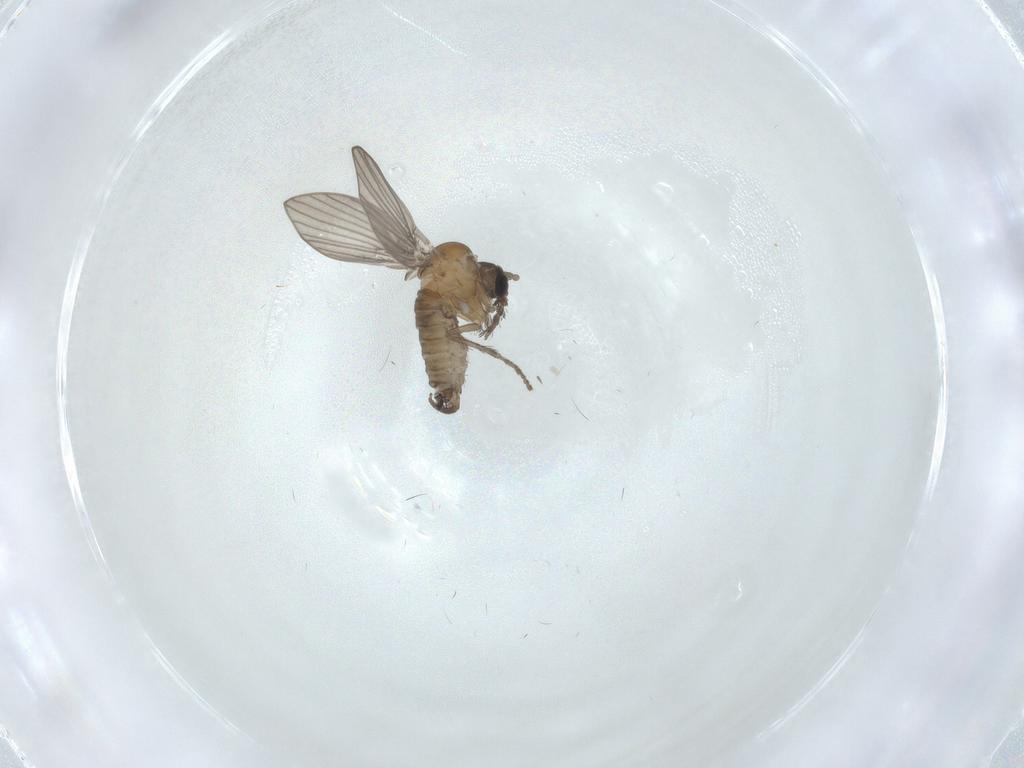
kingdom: Animalia
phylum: Arthropoda
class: Insecta
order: Diptera
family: Psychodidae
